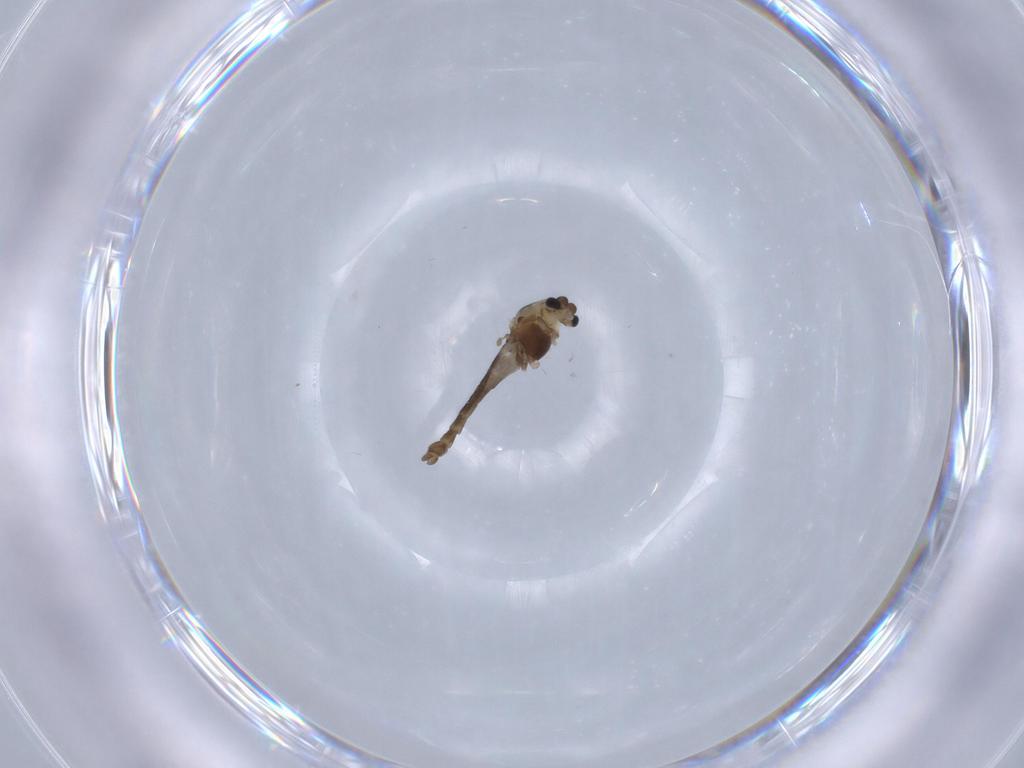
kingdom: Animalia
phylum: Arthropoda
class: Insecta
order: Diptera
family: Chironomidae
